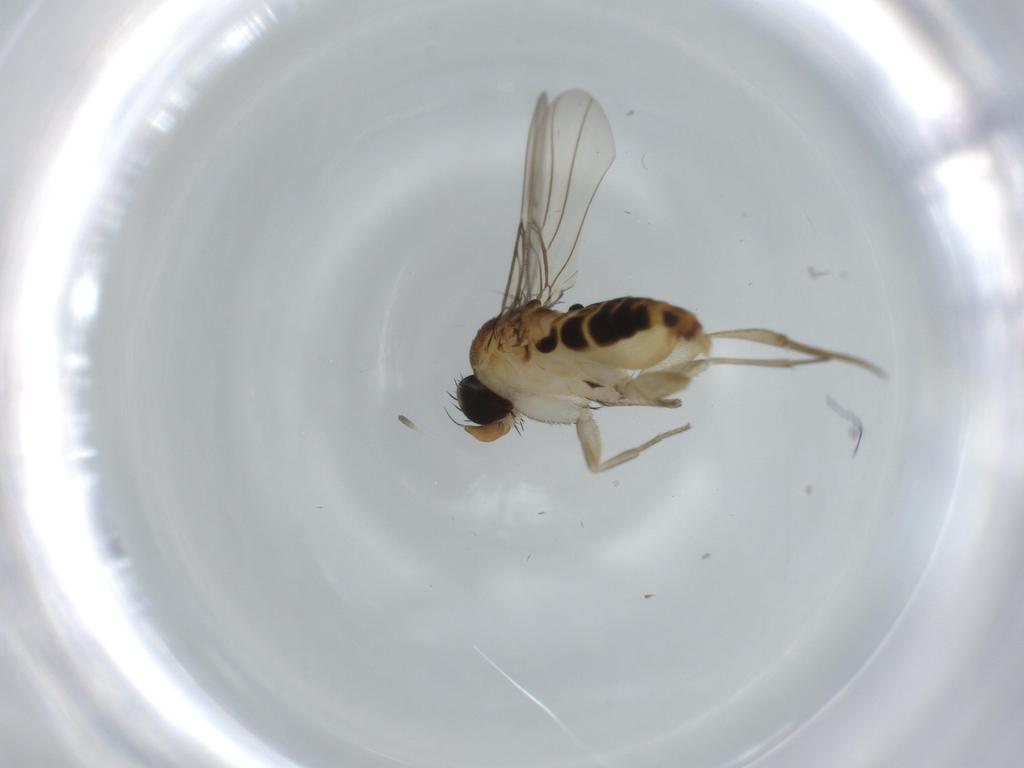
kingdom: Animalia
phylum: Arthropoda
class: Insecta
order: Diptera
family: Phoridae
